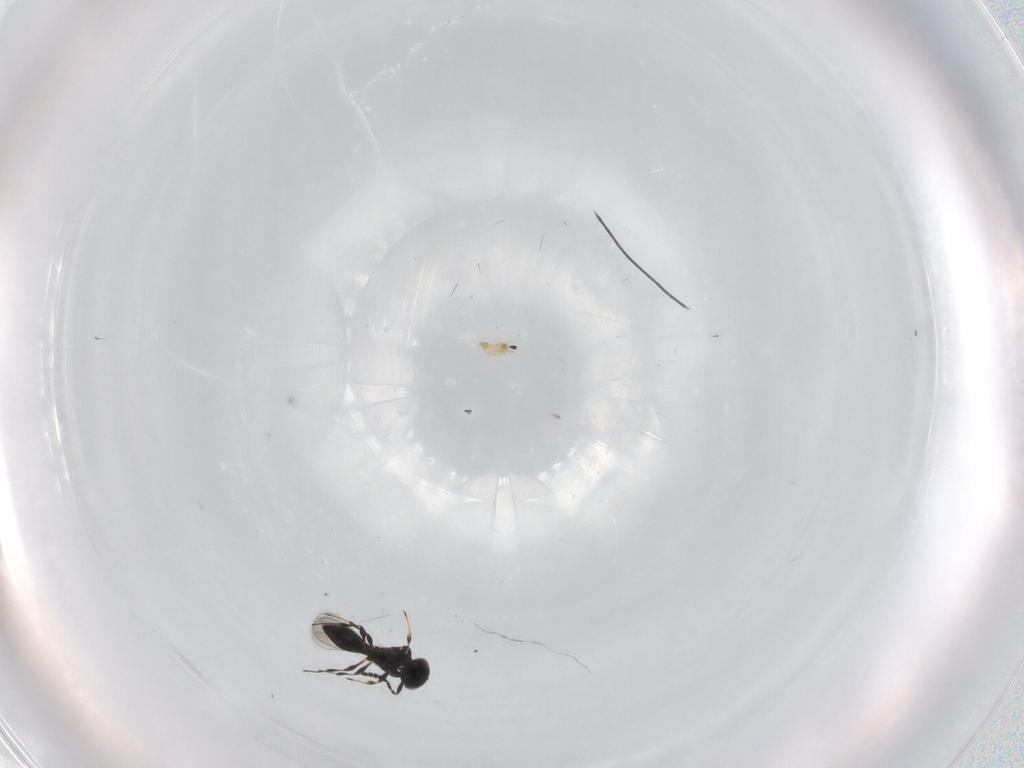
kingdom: Animalia
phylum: Arthropoda
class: Insecta
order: Hymenoptera
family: Platygastridae
